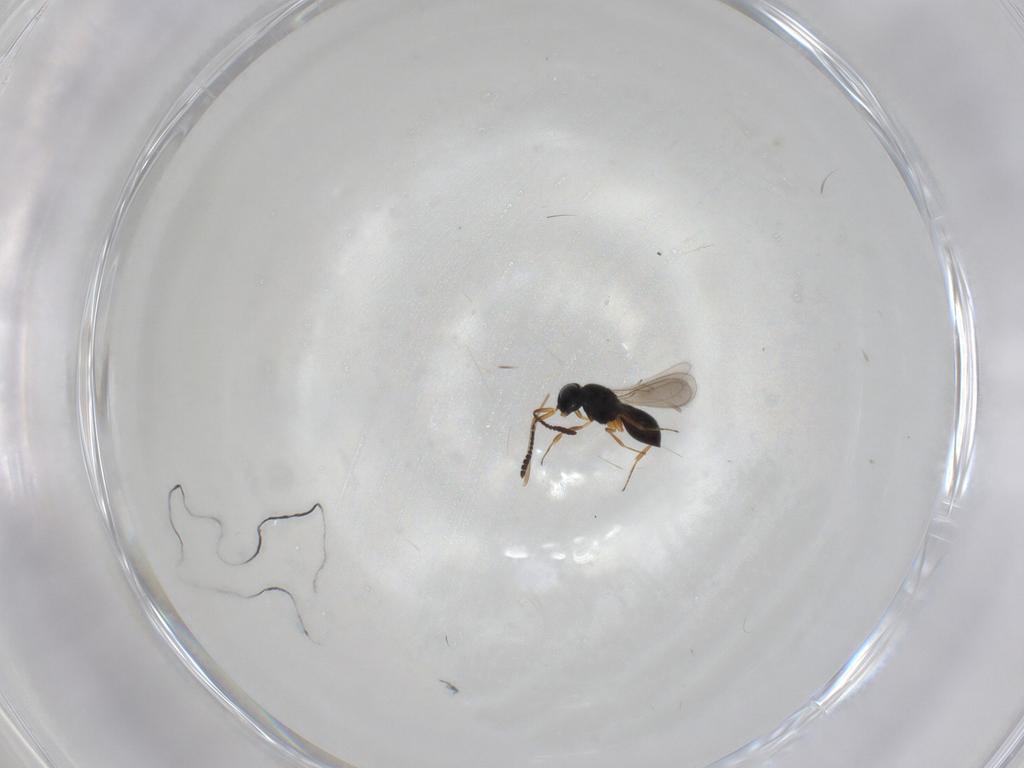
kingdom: Animalia
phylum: Arthropoda
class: Insecta
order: Hymenoptera
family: Scelionidae
